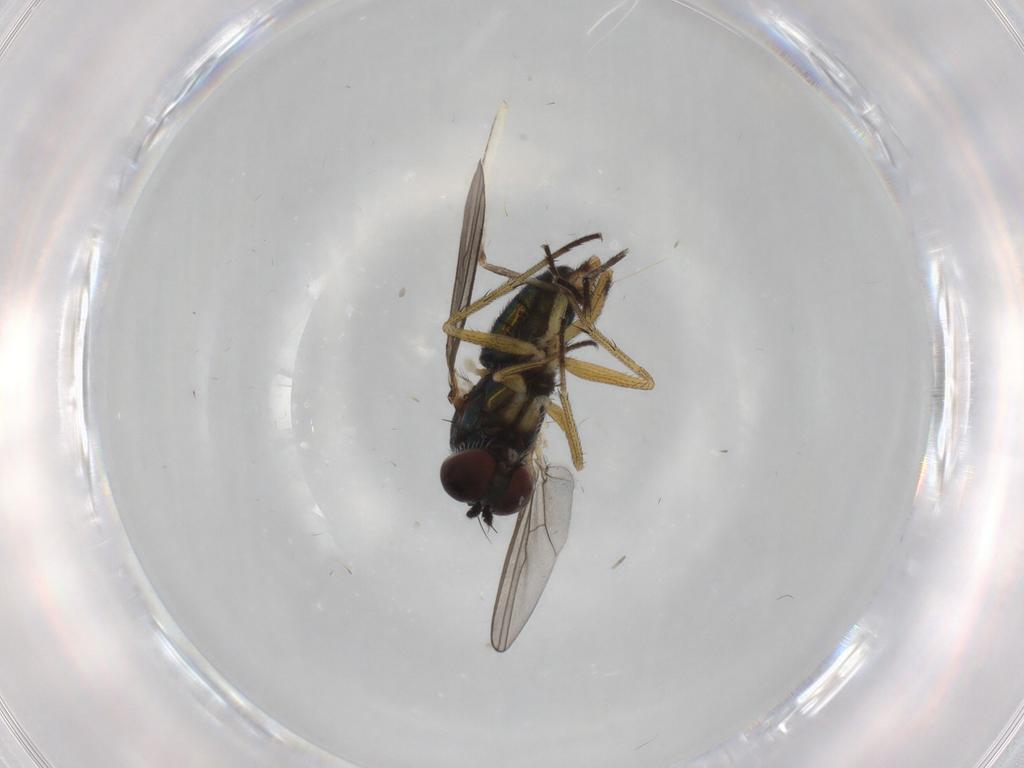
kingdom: Animalia
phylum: Arthropoda
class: Insecta
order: Diptera
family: Culicidae
